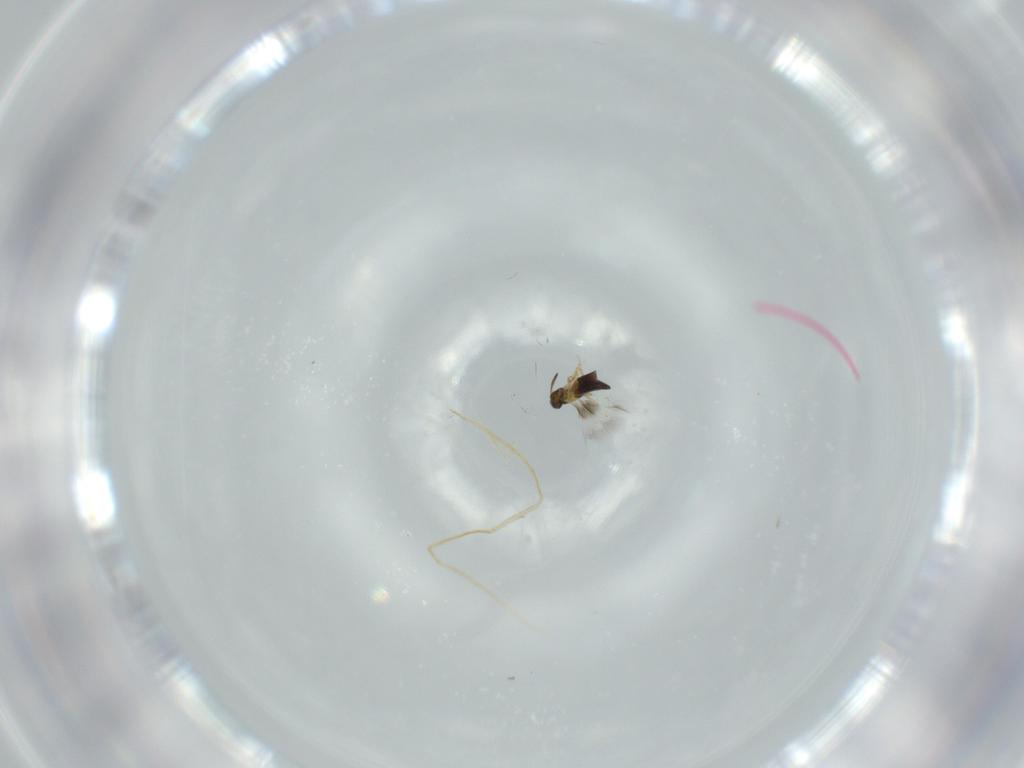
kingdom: Animalia
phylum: Arthropoda
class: Insecta
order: Hymenoptera
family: Signiphoridae
